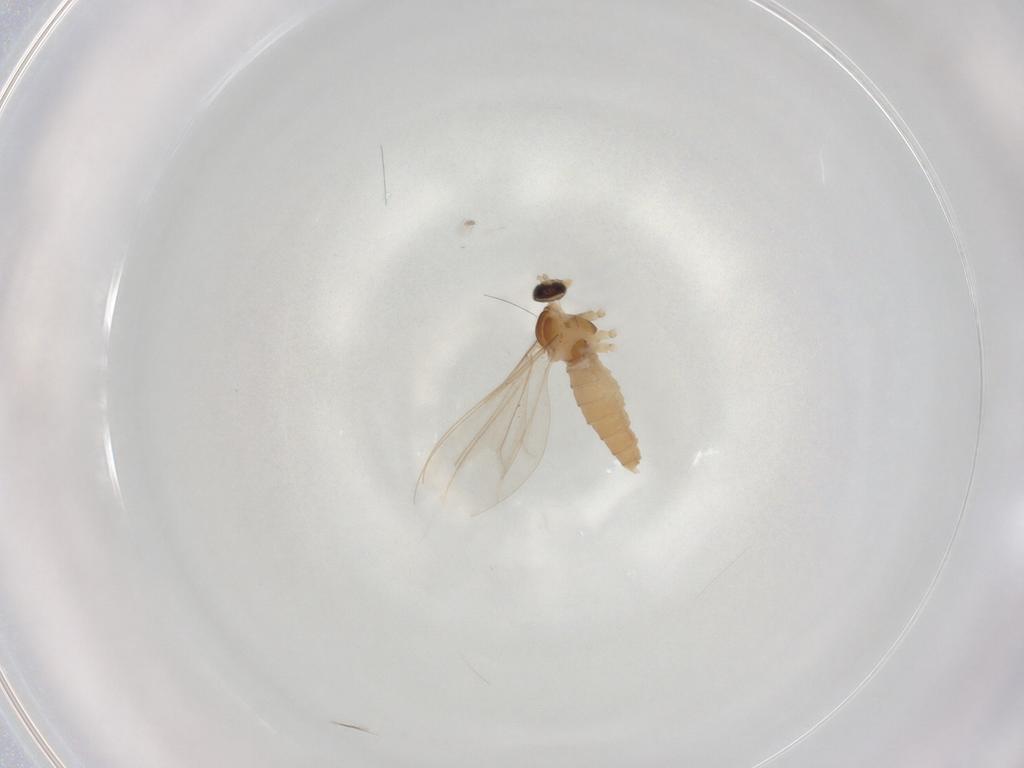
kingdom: Animalia
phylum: Arthropoda
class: Insecta
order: Diptera
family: Cecidomyiidae
